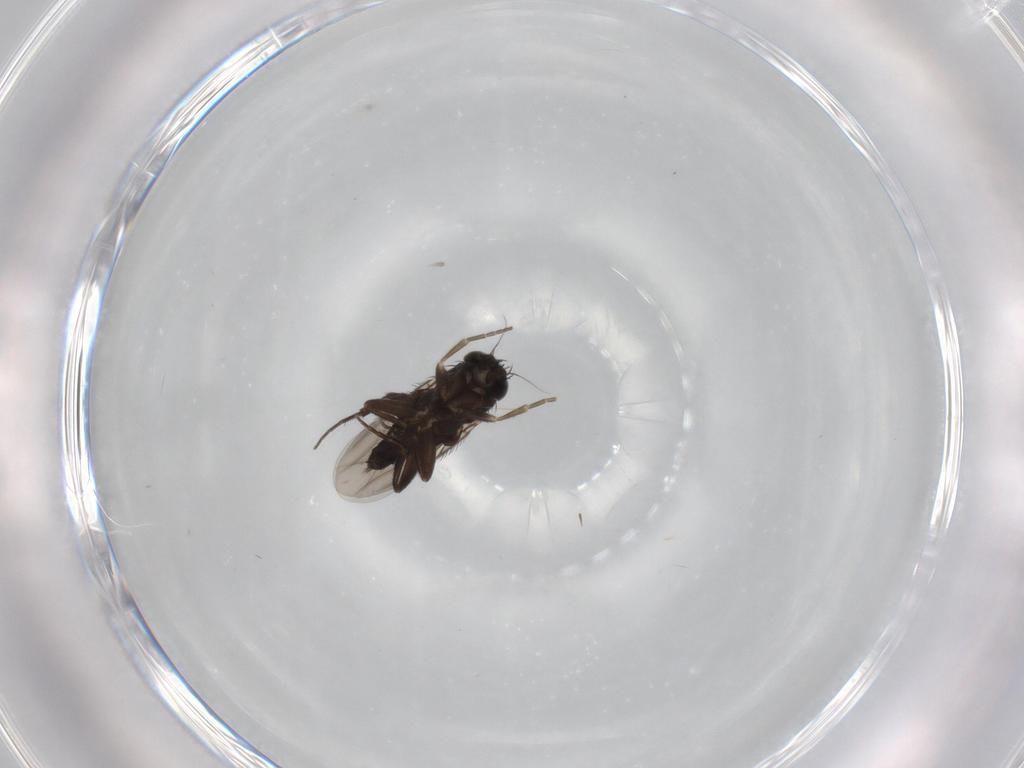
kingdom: Animalia
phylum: Arthropoda
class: Insecta
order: Diptera
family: Phoridae
